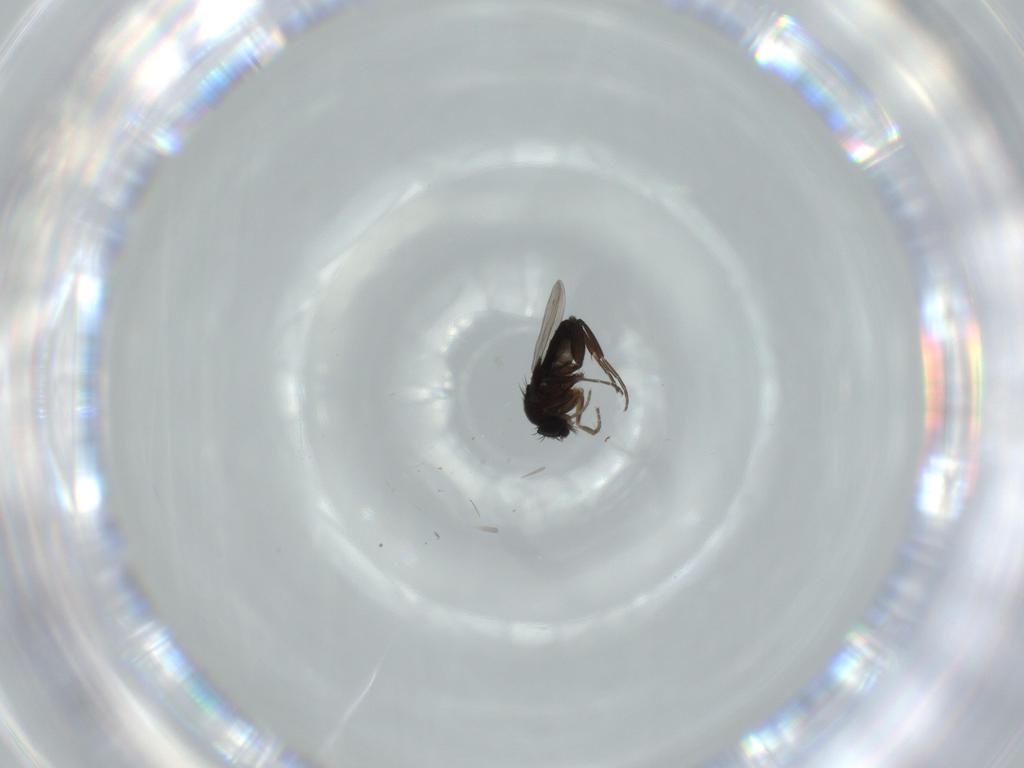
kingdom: Animalia
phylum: Arthropoda
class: Insecta
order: Diptera
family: Phoridae
